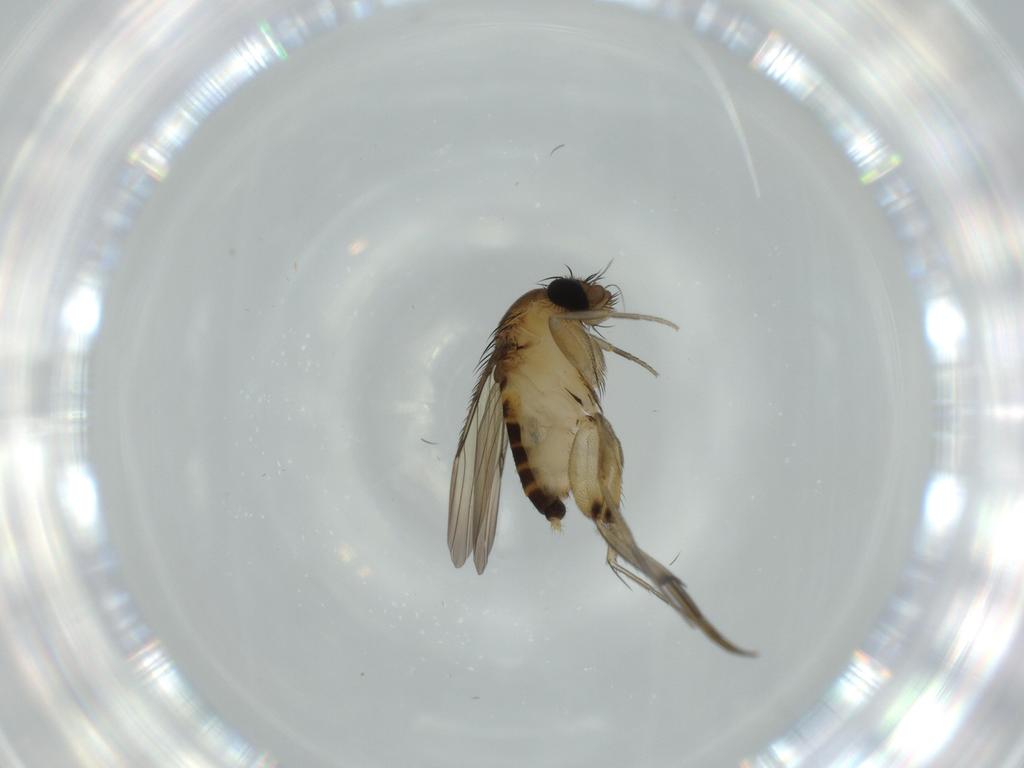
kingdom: Animalia
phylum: Arthropoda
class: Insecta
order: Diptera
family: Phoridae
